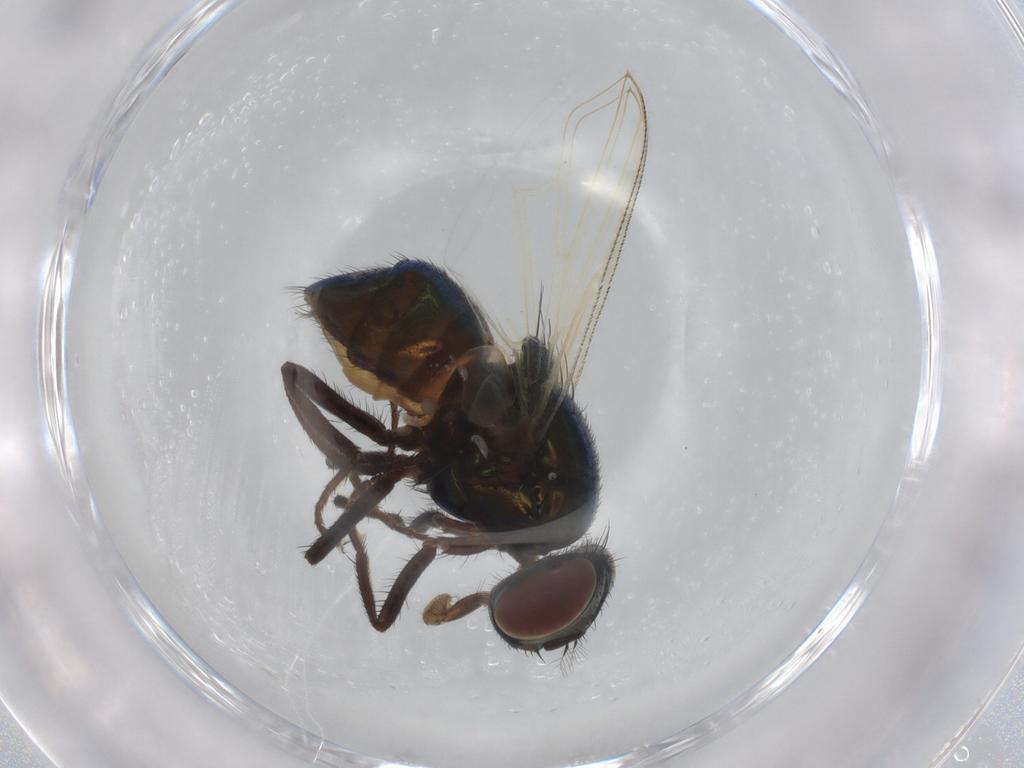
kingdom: Animalia
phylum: Arthropoda
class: Insecta
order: Diptera
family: Muscidae
